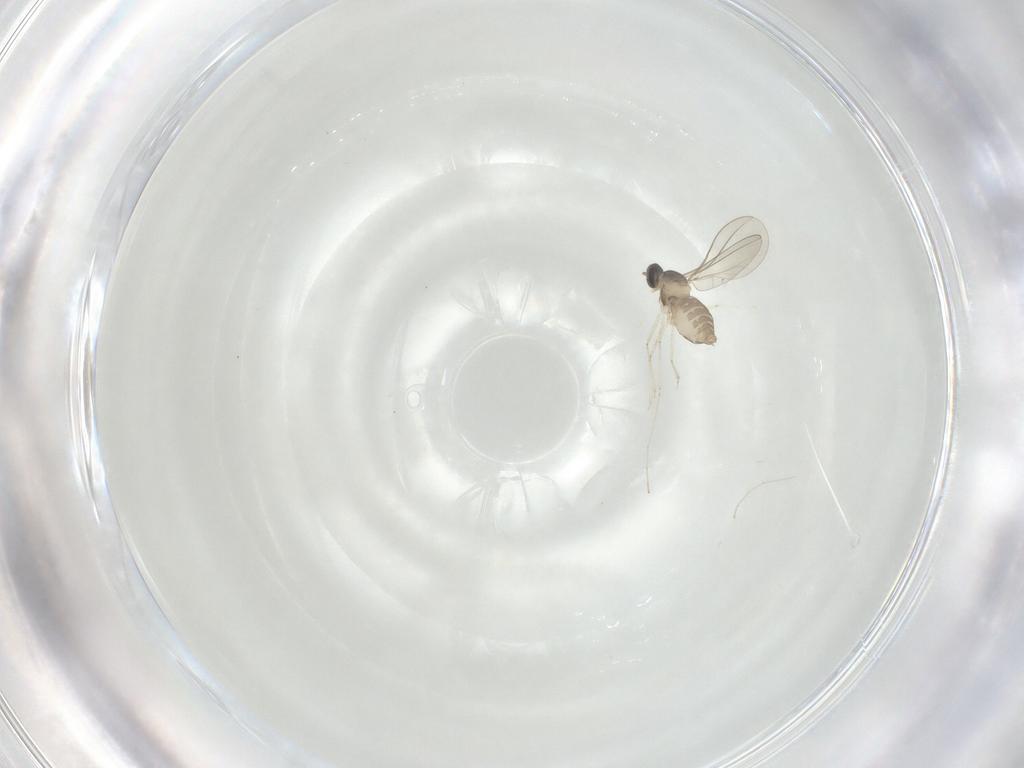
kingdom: Animalia
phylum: Arthropoda
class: Insecta
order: Diptera
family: Cecidomyiidae
